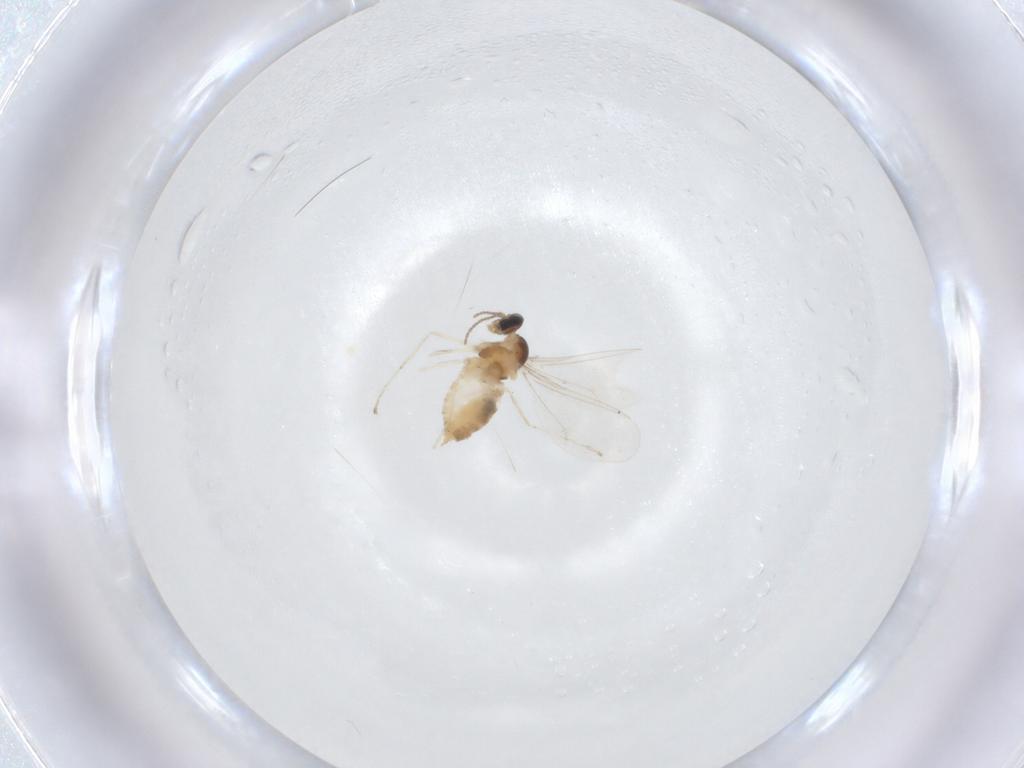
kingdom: Animalia
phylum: Arthropoda
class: Insecta
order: Diptera
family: Cecidomyiidae
